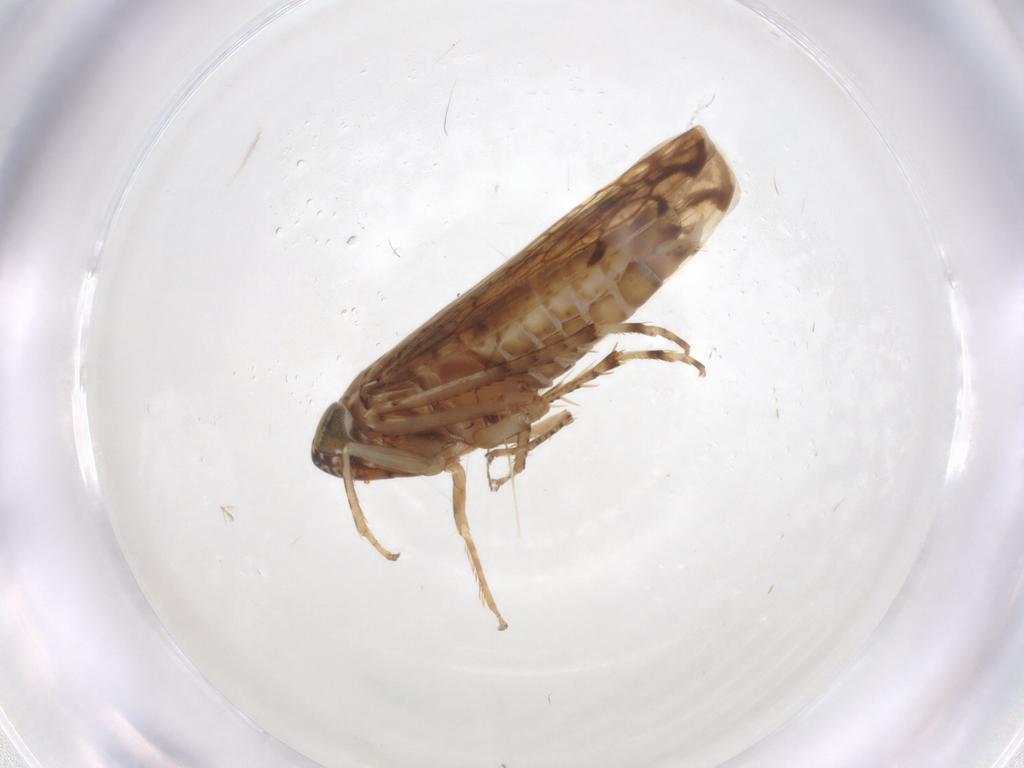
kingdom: Animalia
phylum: Arthropoda
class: Insecta
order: Hemiptera
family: Cicadellidae
